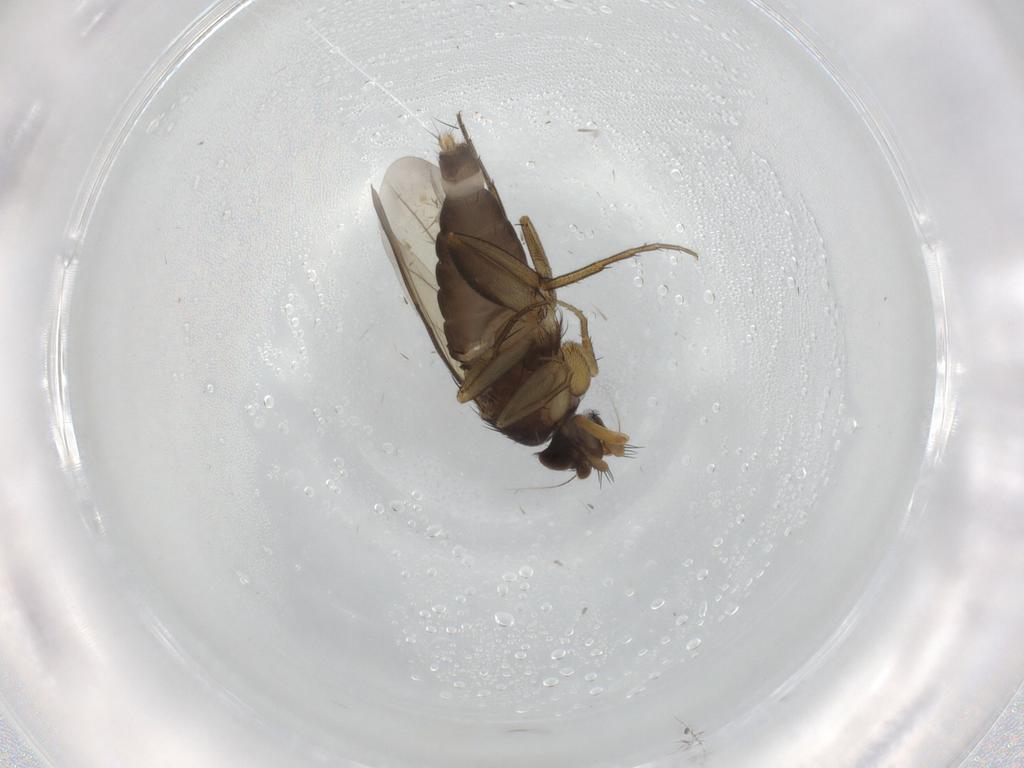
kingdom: Animalia
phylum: Arthropoda
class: Insecta
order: Diptera
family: Phoridae
